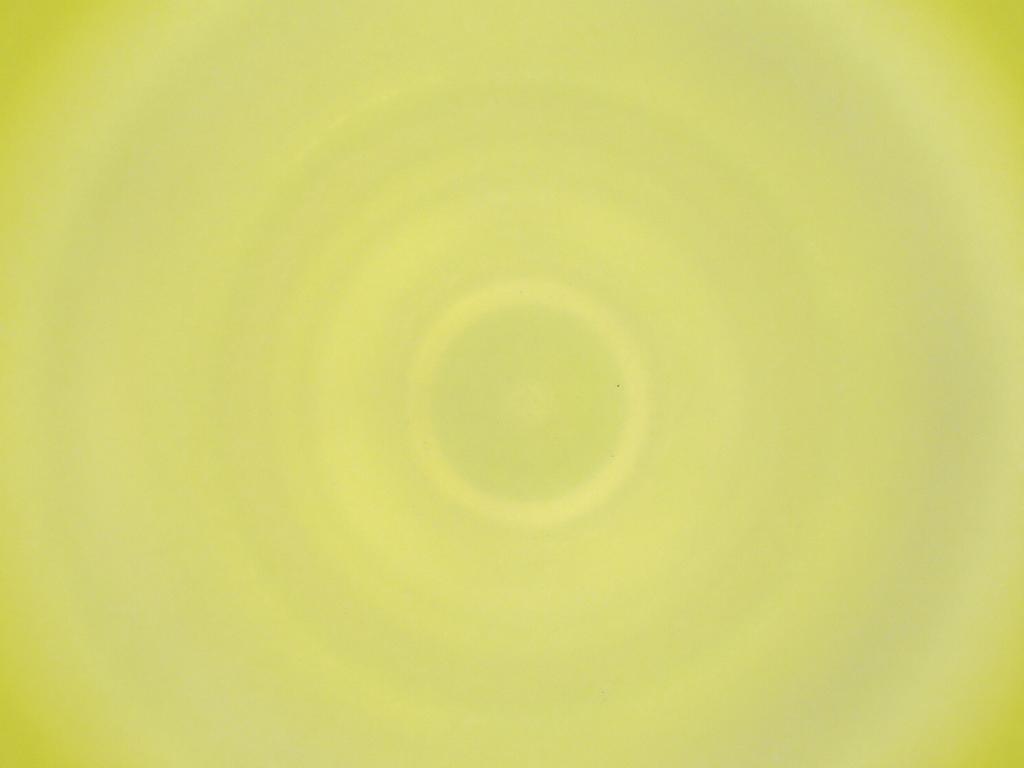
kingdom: Animalia
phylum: Arthropoda
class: Insecta
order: Diptera
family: Cecidomyiidae
